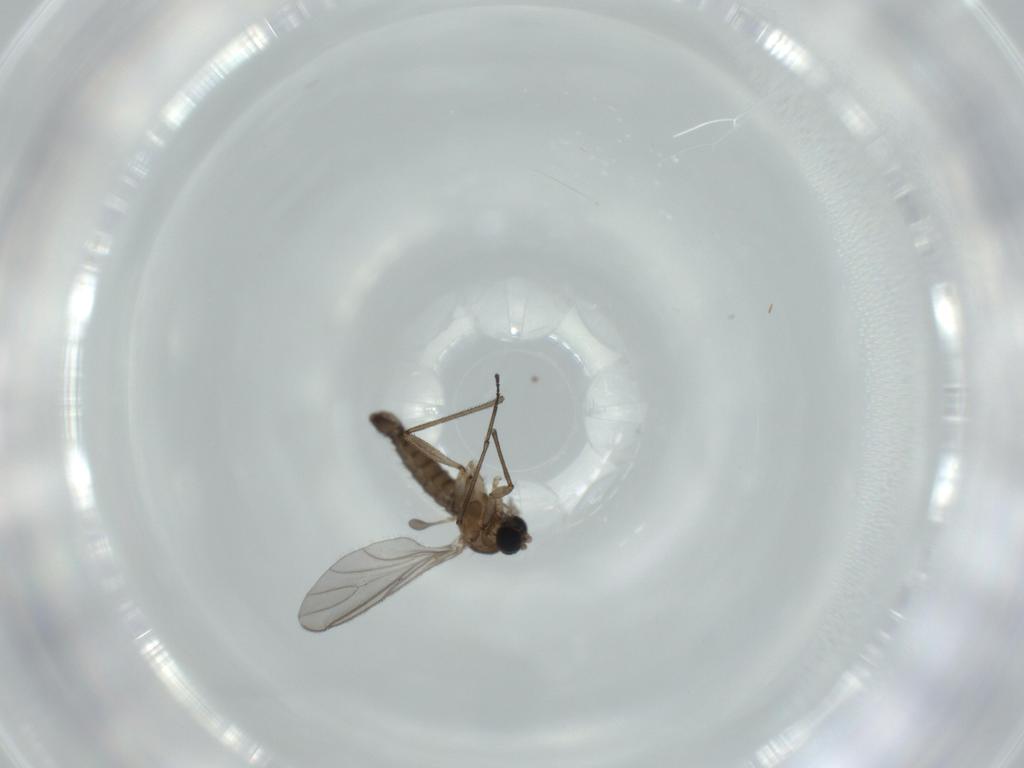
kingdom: Animalia
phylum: Arthropoda
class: Insecta
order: Diptera
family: Sciaridae
